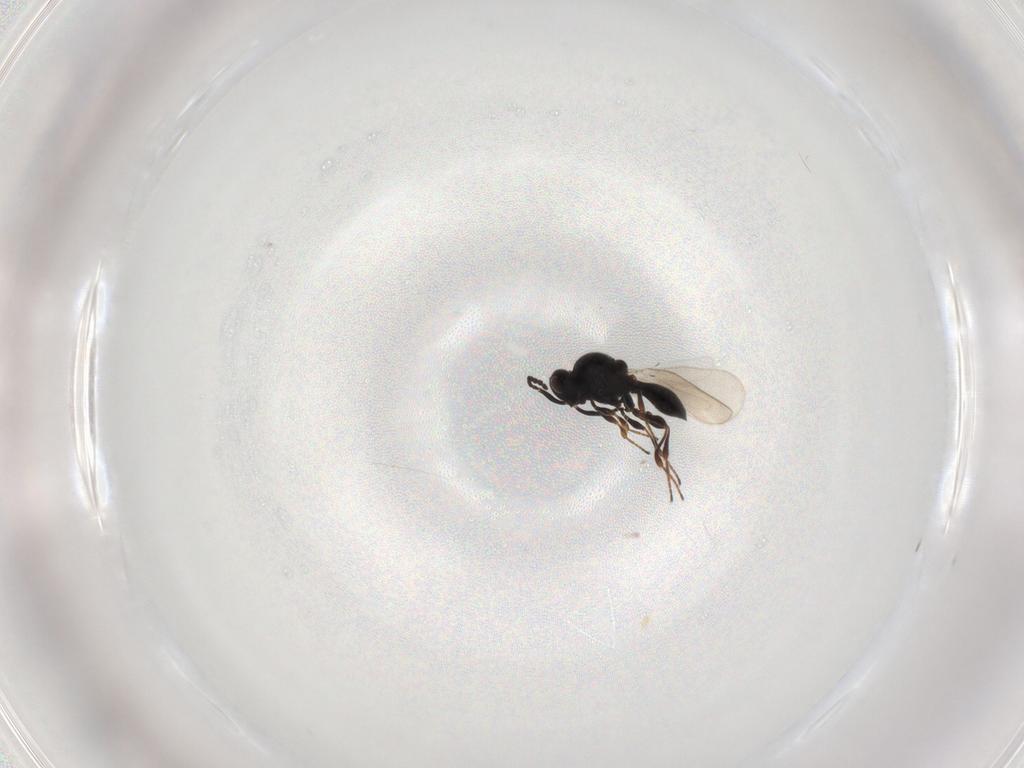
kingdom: Animalia
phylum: Arthropoda
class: Insecta
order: Hymenoptera
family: Platygastridae
